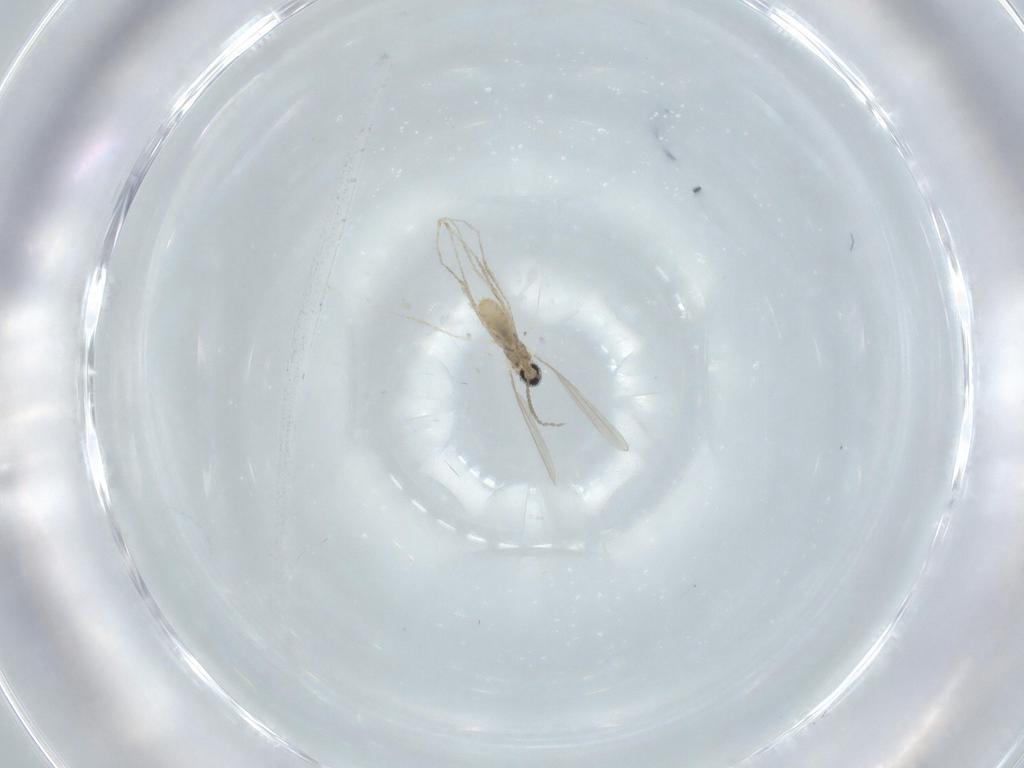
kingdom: Animalia
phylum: Arthropoda
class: Insecta
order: Diptera
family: Cecidomyiidae
